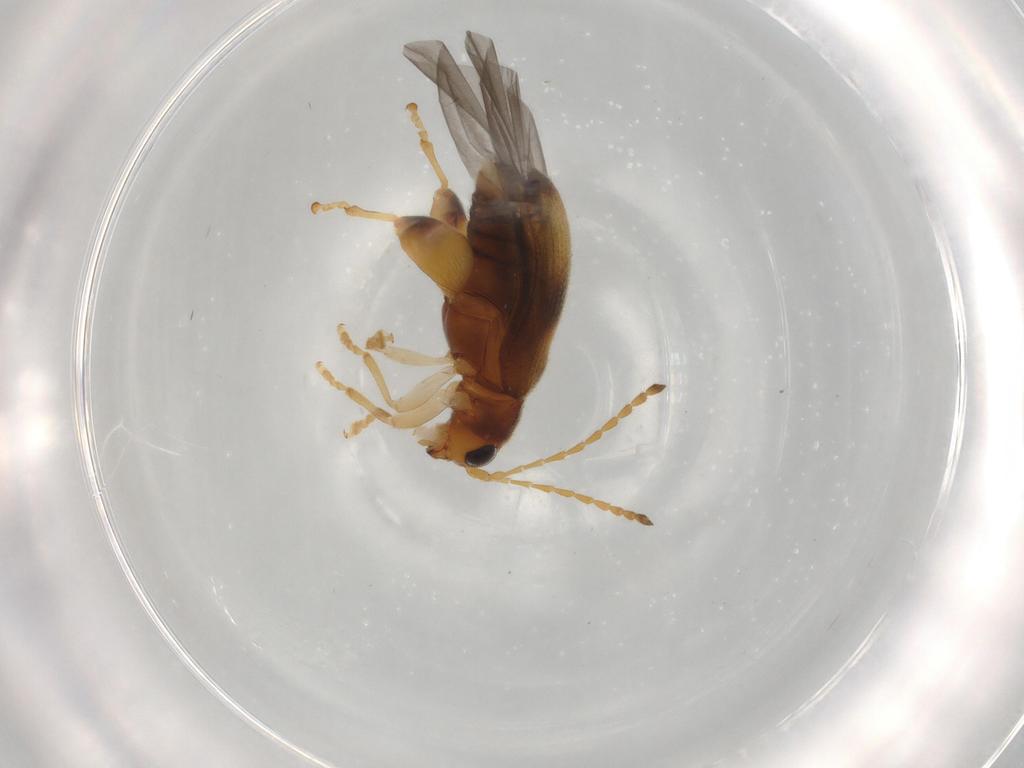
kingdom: Animalia
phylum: Arthropoda
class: Insecta
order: Coleoptera
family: Chrysomelidae
